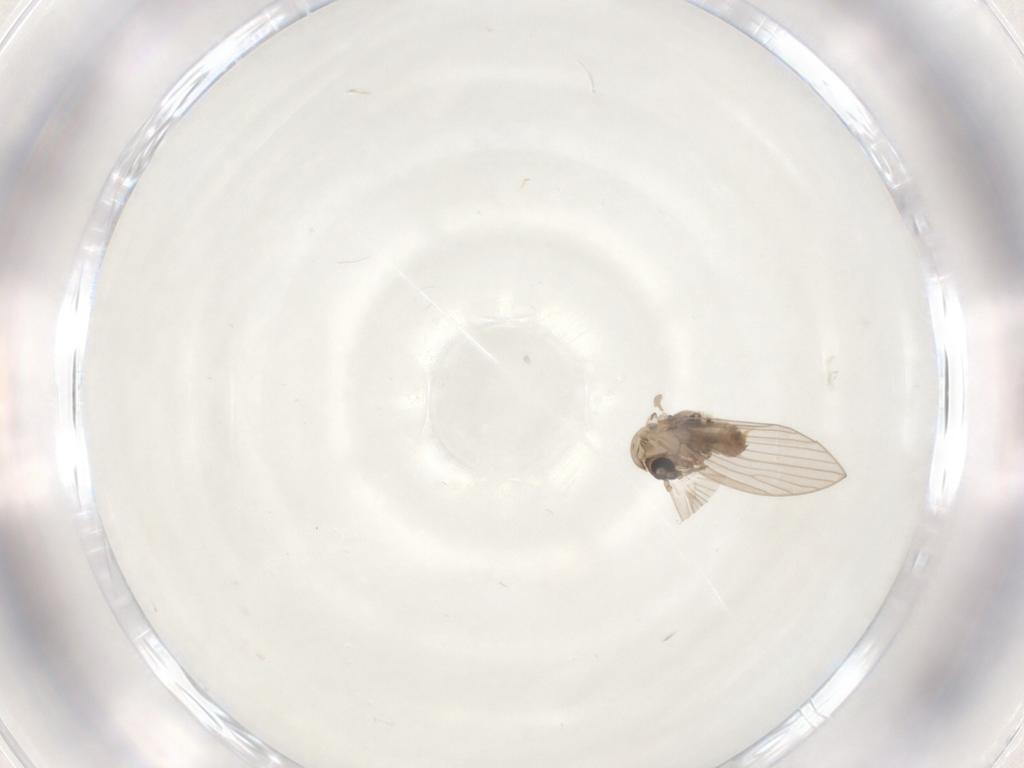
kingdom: Animalia
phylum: Arthropoda
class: Insecta
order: Diptera
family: Psychodidae
